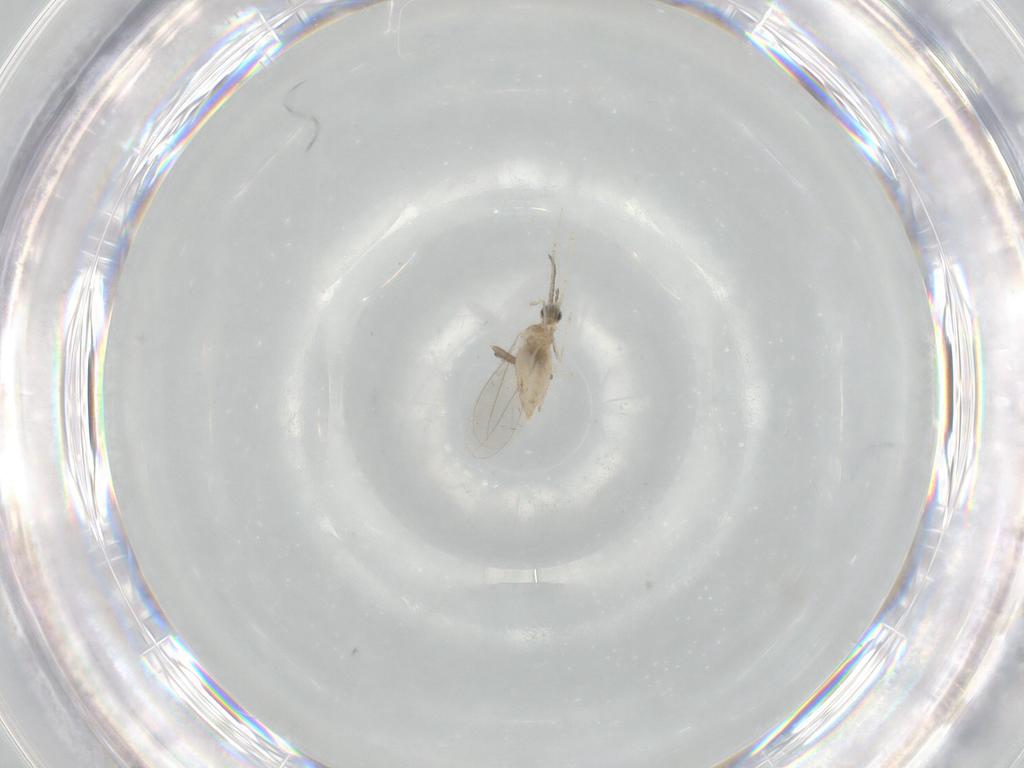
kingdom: Animalia
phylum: Arthropoda
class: Insecta
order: Diptera
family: Chironomidae
